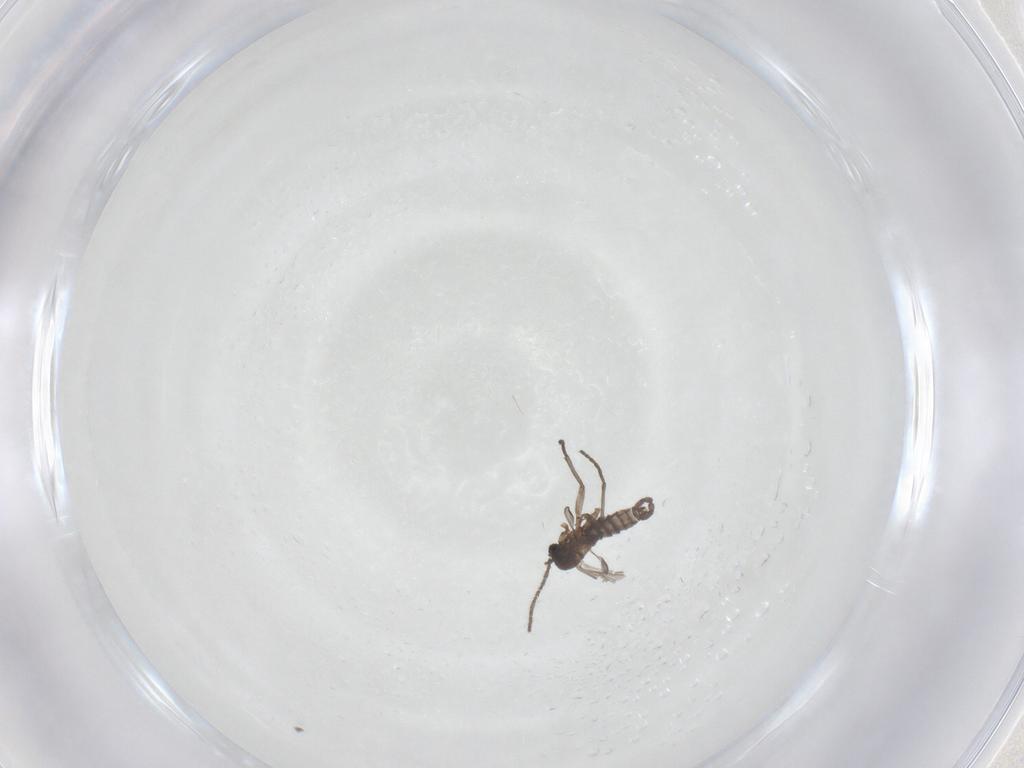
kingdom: Animalia
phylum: Arthropoda
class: Insecta
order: Diptera
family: Sciaridae
